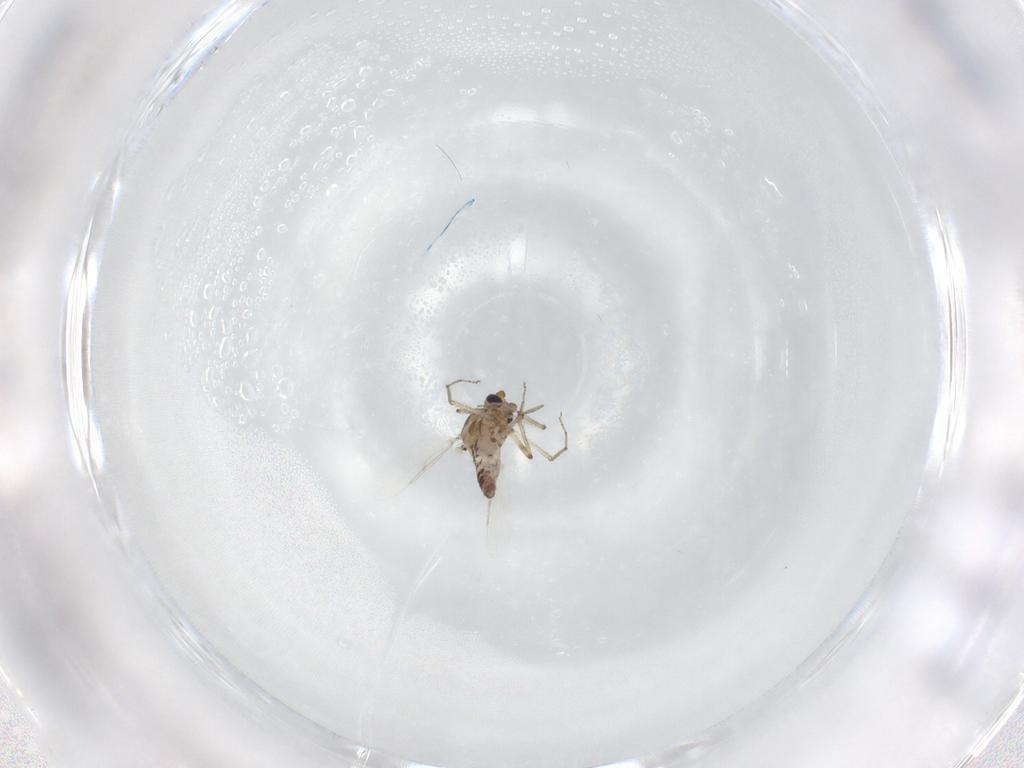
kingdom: Animalia
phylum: Arthropoda
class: Insecta
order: Diptera
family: Ceratopogonidae
